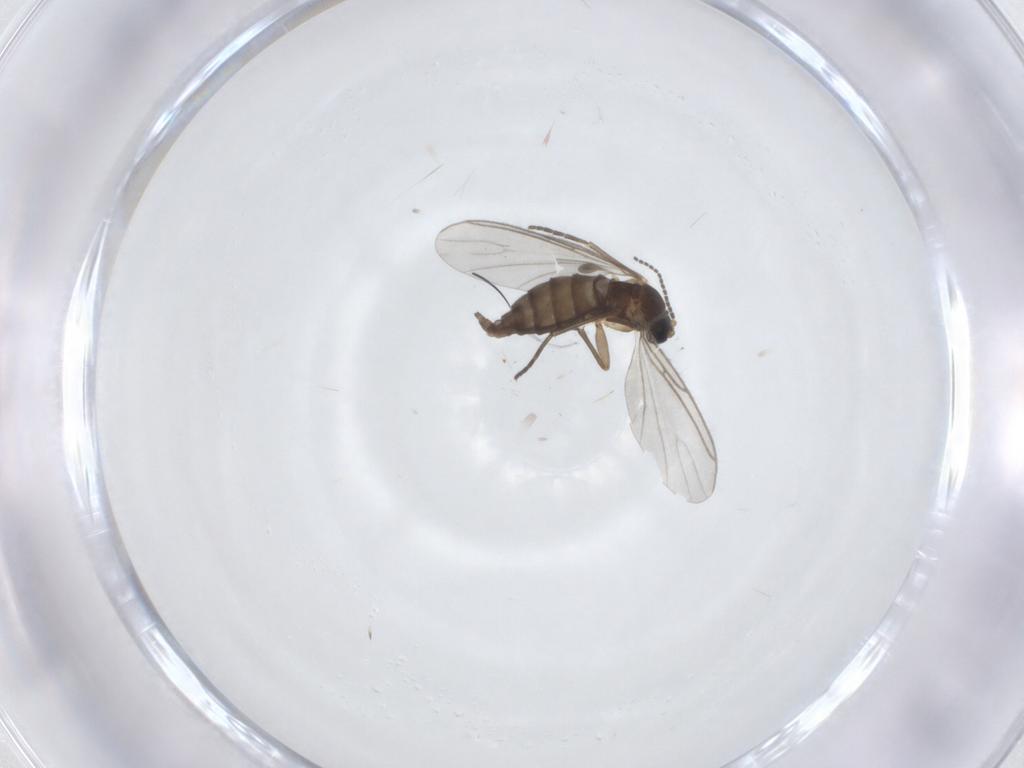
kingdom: Animalia
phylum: Arthropoda
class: Insecta
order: Diptera
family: Sciaridae
